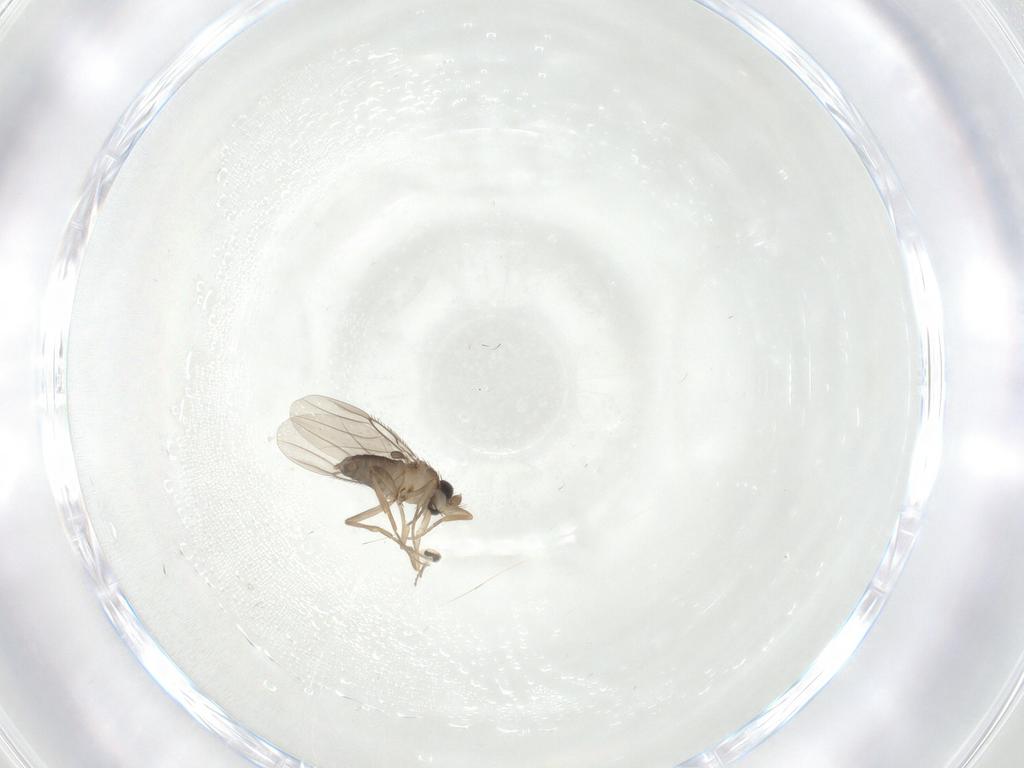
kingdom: Animalia
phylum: Arthropoda
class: Insecta
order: Diptera
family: Phoridae
